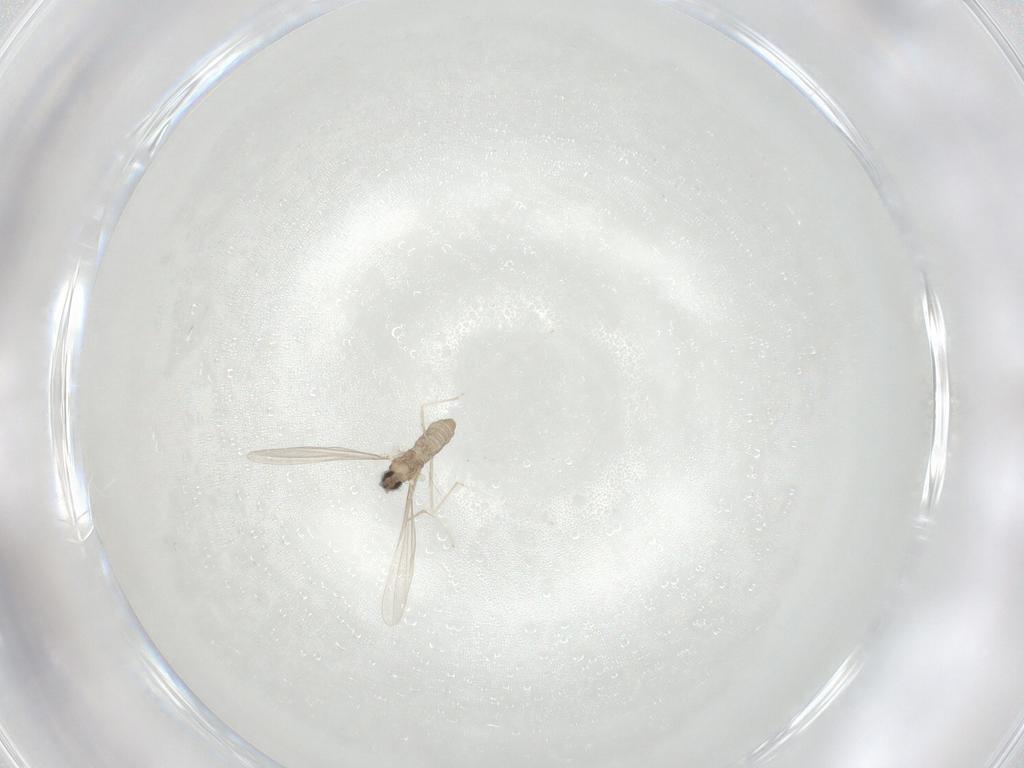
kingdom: Animalia
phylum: Arthropoda
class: Insecta
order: Diptera
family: Cecidomyiidae
